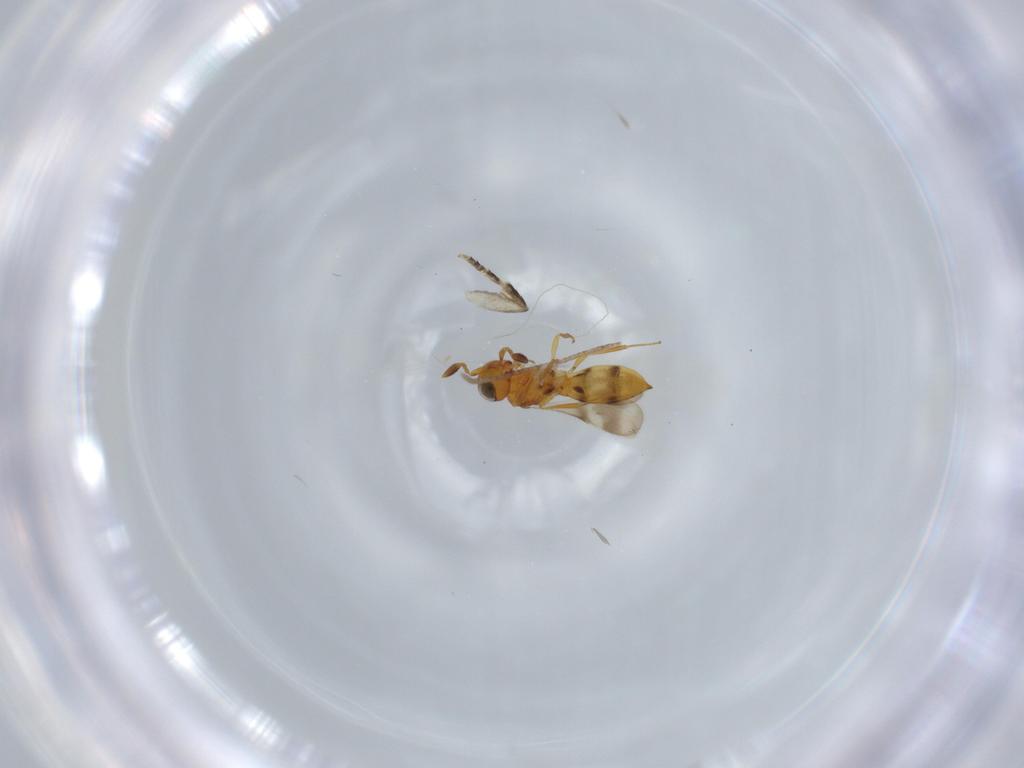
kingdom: Animalia
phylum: Arthropoda
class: Insecta
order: Hymenoptera
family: Scelionidae
